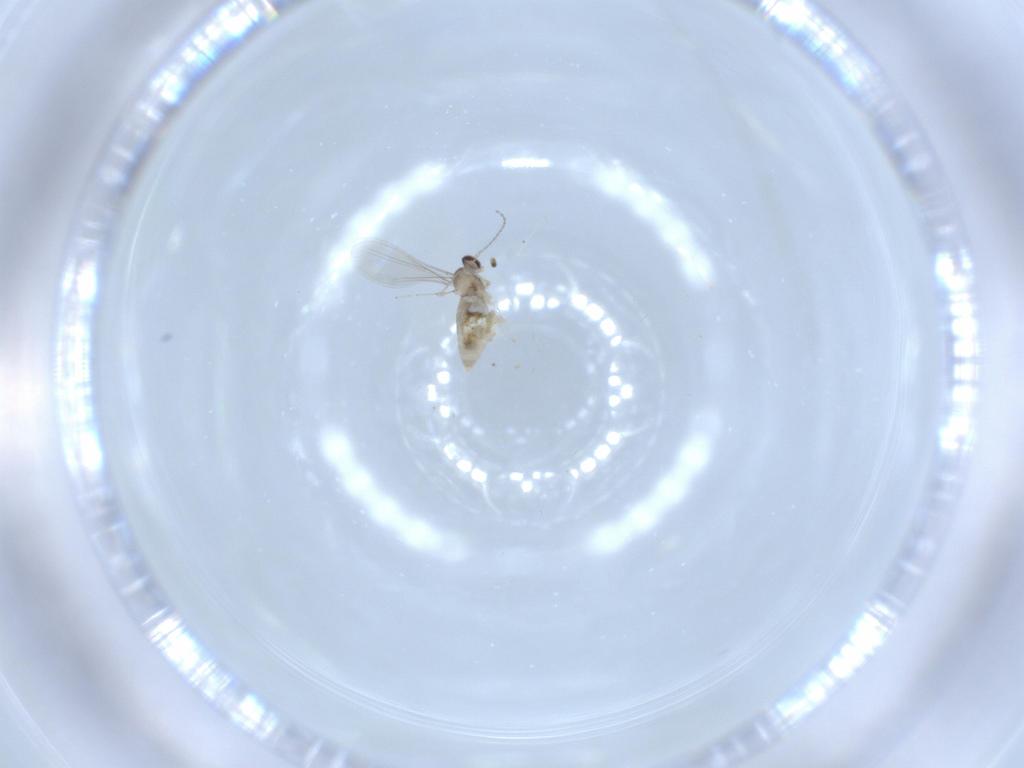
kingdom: Animalia
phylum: Arthropoda
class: Insecta
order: Diptera
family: Cecidomyiidae
